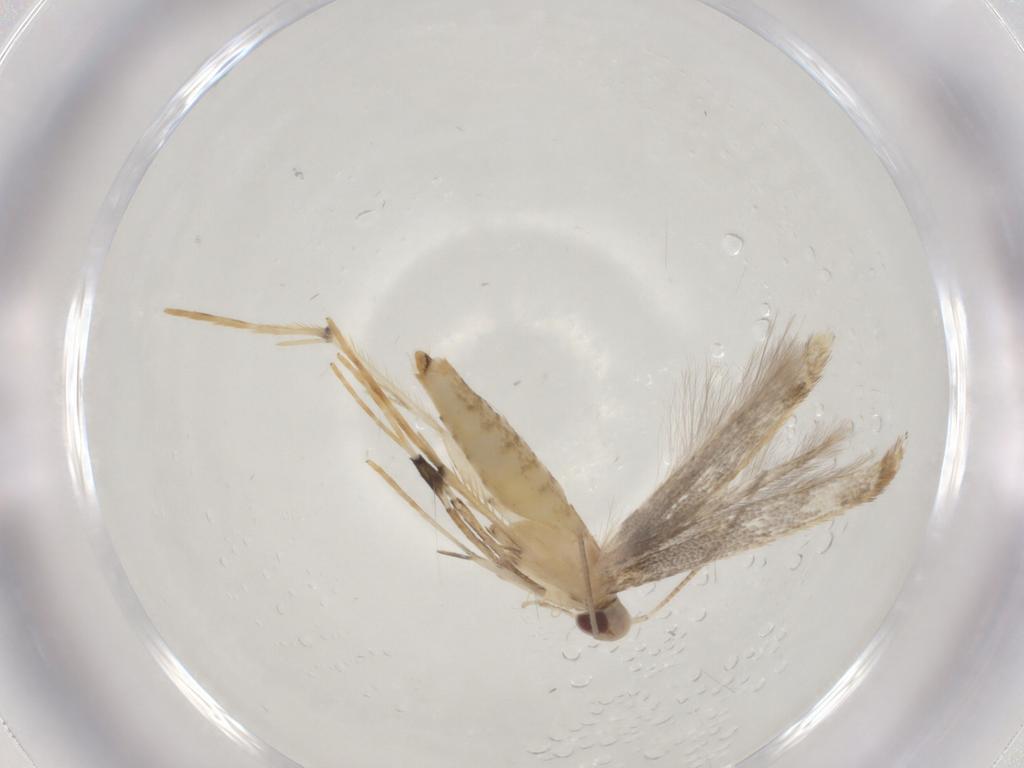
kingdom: Animalia
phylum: Arthropoda
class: Insecta
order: Lepidoptera
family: Gracillariidae
